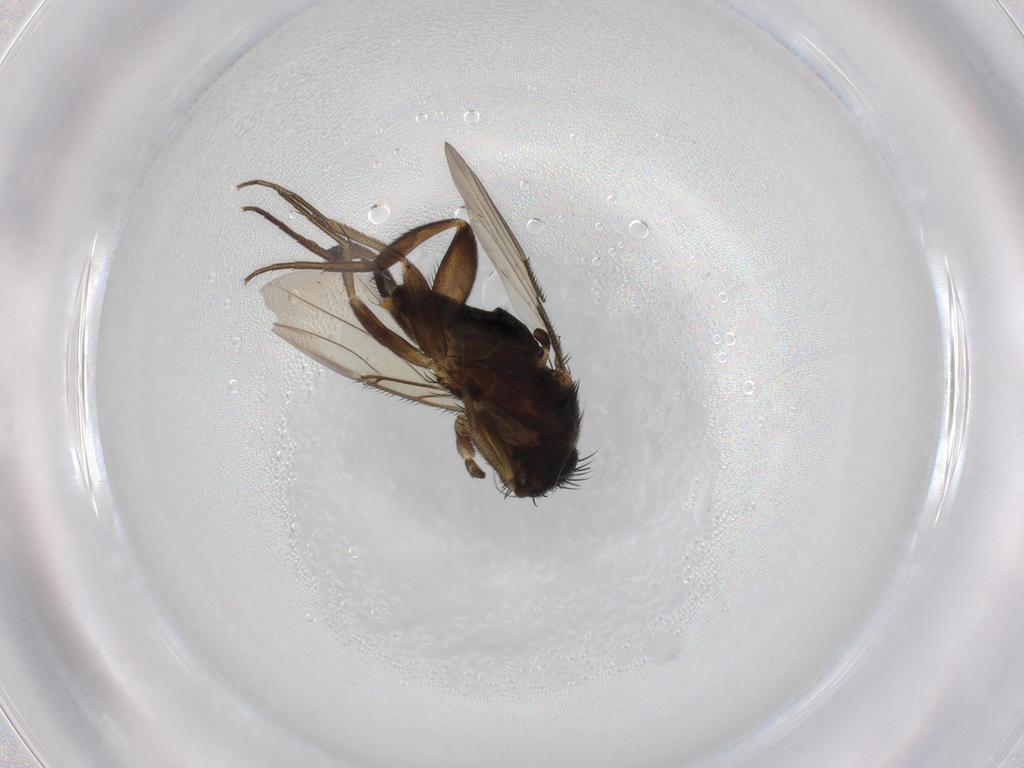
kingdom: Animalia
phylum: Arthropoda
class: Insecta
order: Diptera
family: Phoridae
